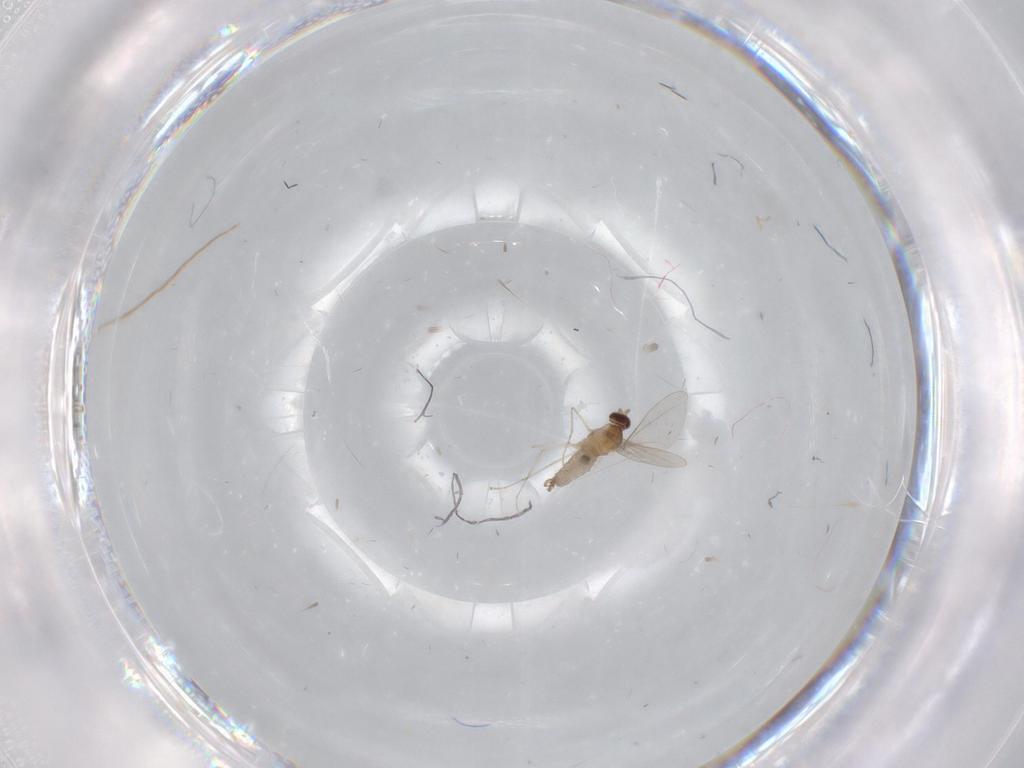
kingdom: Animalia
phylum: Arthropoda
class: Insecta
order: Diptera
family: Cecidomyiidae
